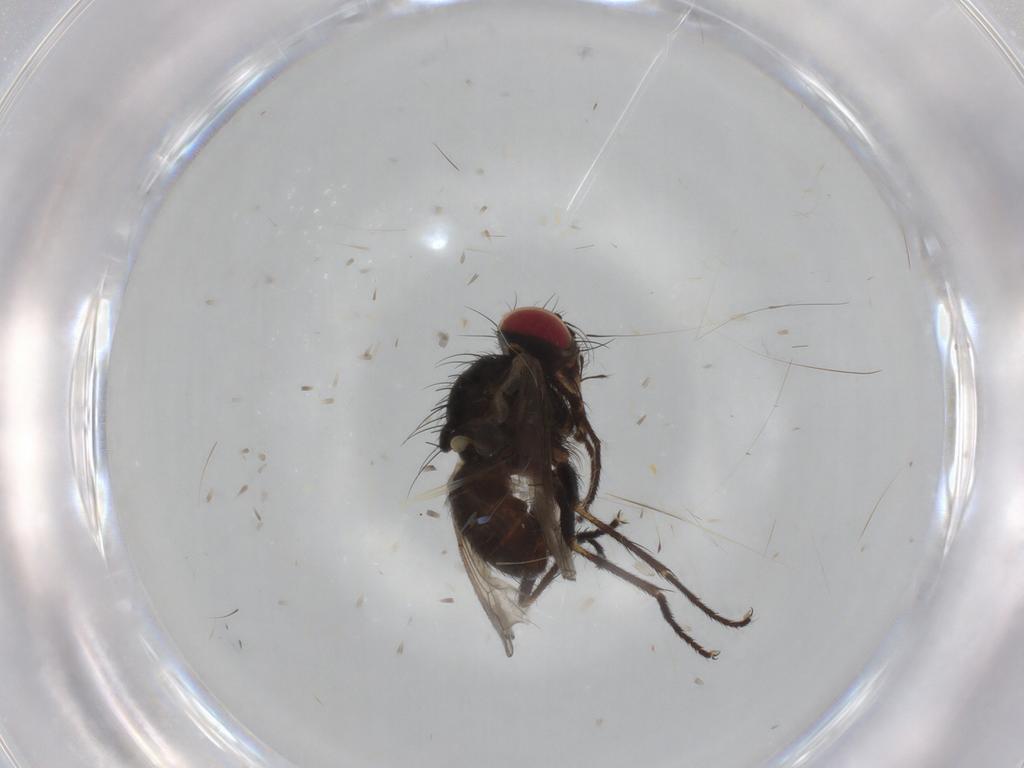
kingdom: Animalia
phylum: Arthropoda
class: Insecta
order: Diptera
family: Muscidae
